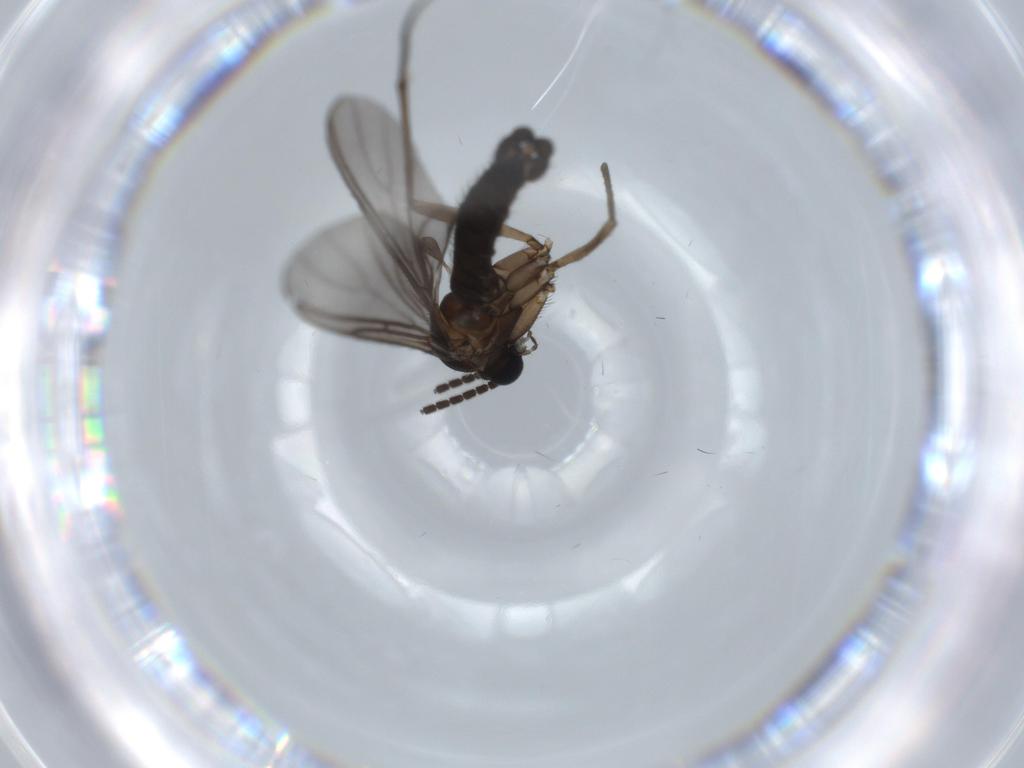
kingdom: Animalia
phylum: Arthropoda
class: Insecta
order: Diptera
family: Sciaridae
